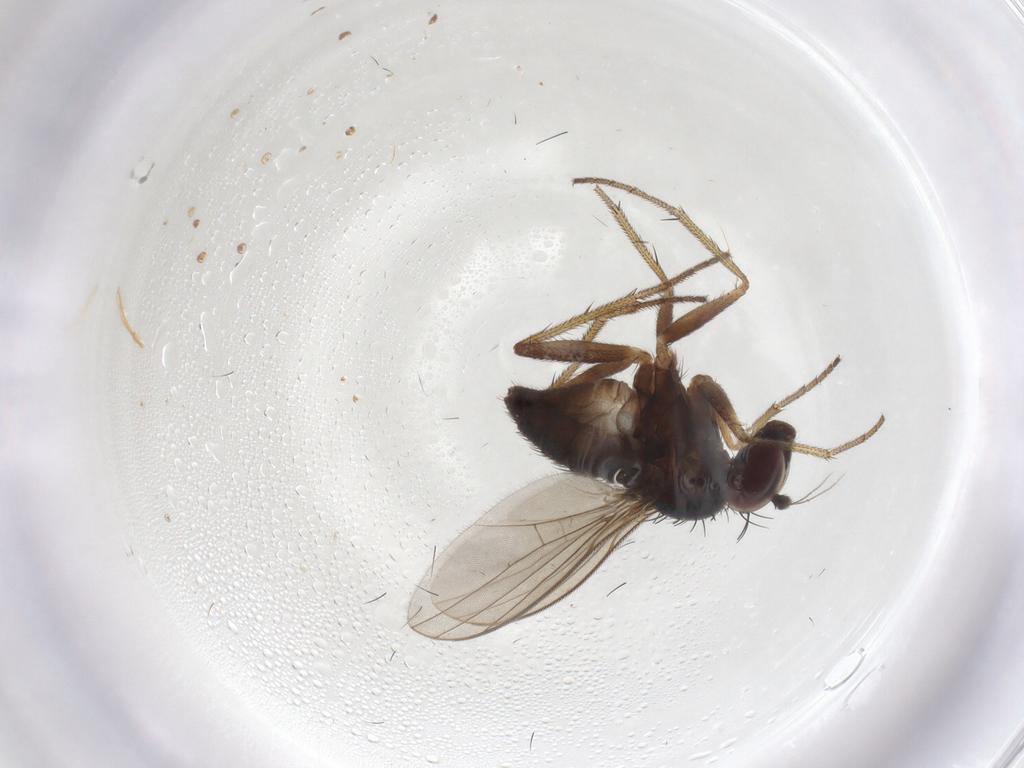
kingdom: Animalia
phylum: Arthropoda
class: Insecta
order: Diptera
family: Dolichopodidae
